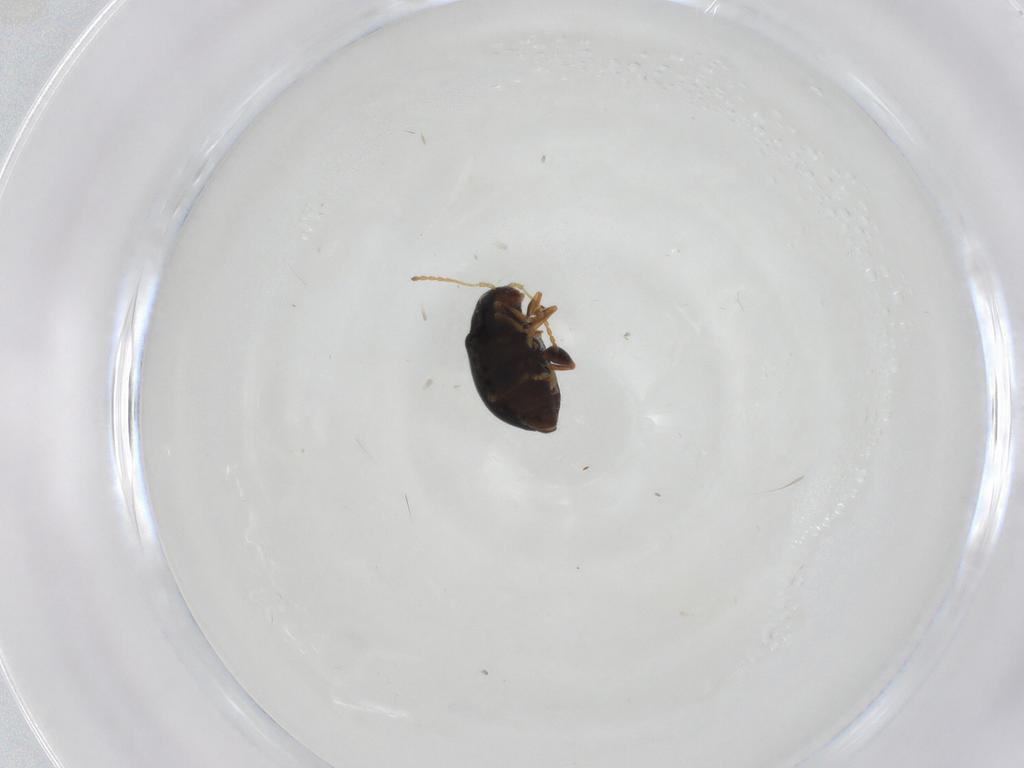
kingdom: Animalia
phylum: Arthropoda
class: Insecta
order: Coleoptera
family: Chrysomelidae
